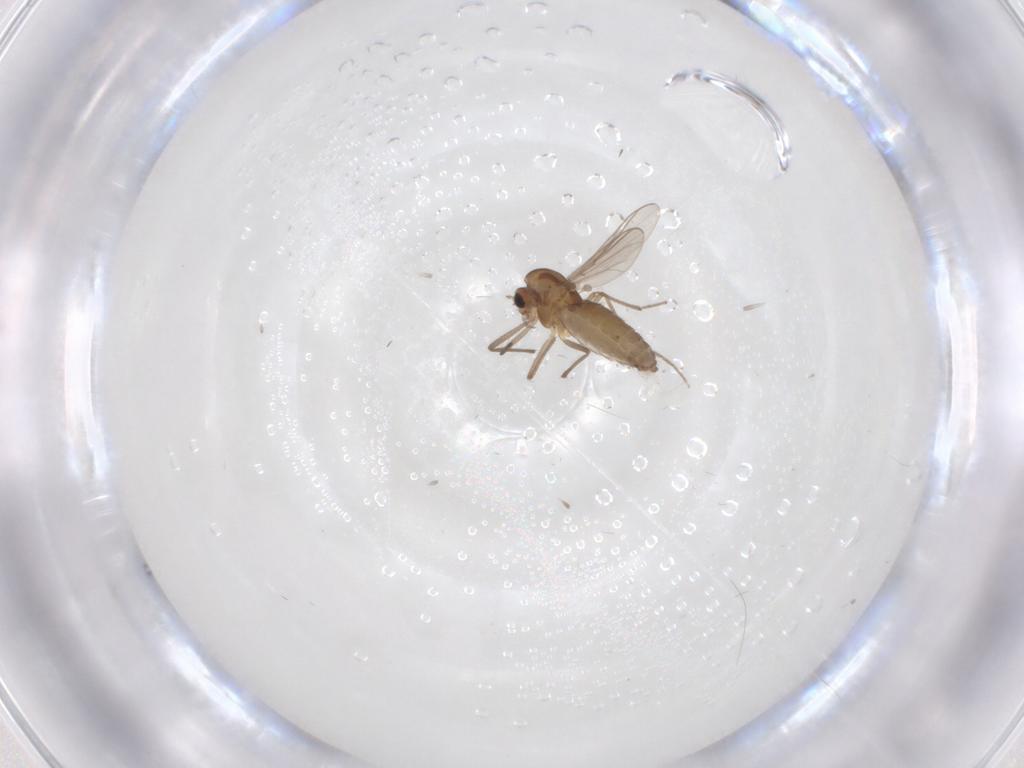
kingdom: Animalia
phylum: Arthropoda
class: Insecta
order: Diptera
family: Chironomidae
